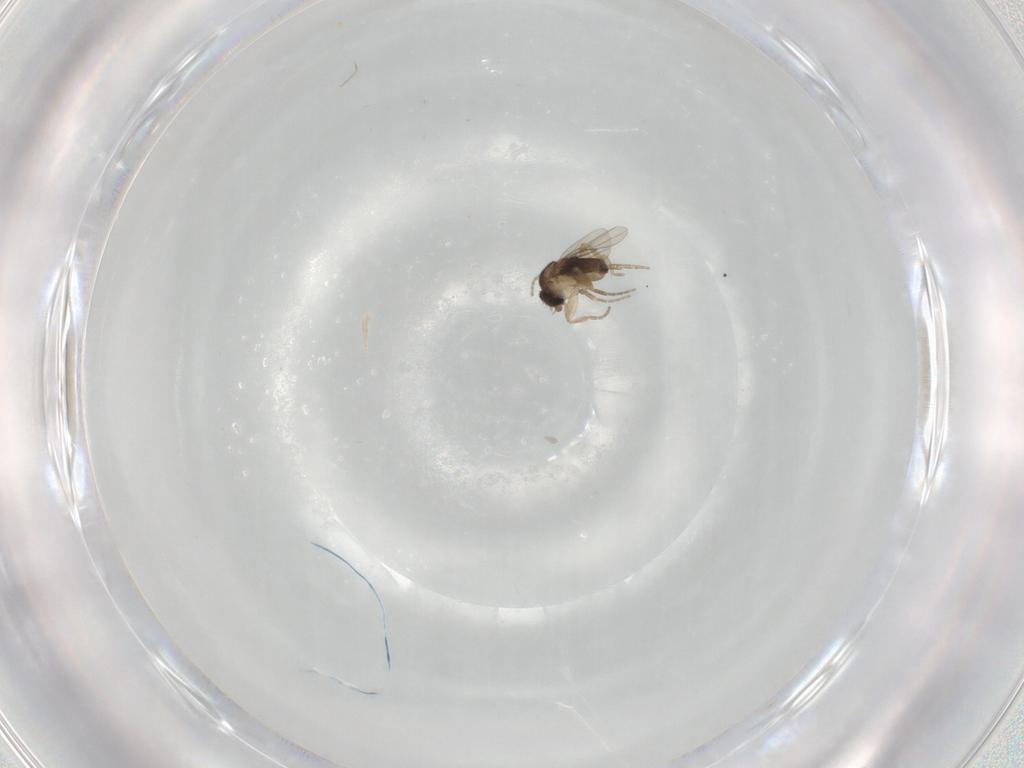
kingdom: Animalia
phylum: Arthropoda
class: Insecta
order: Diptera
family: Phoridae
